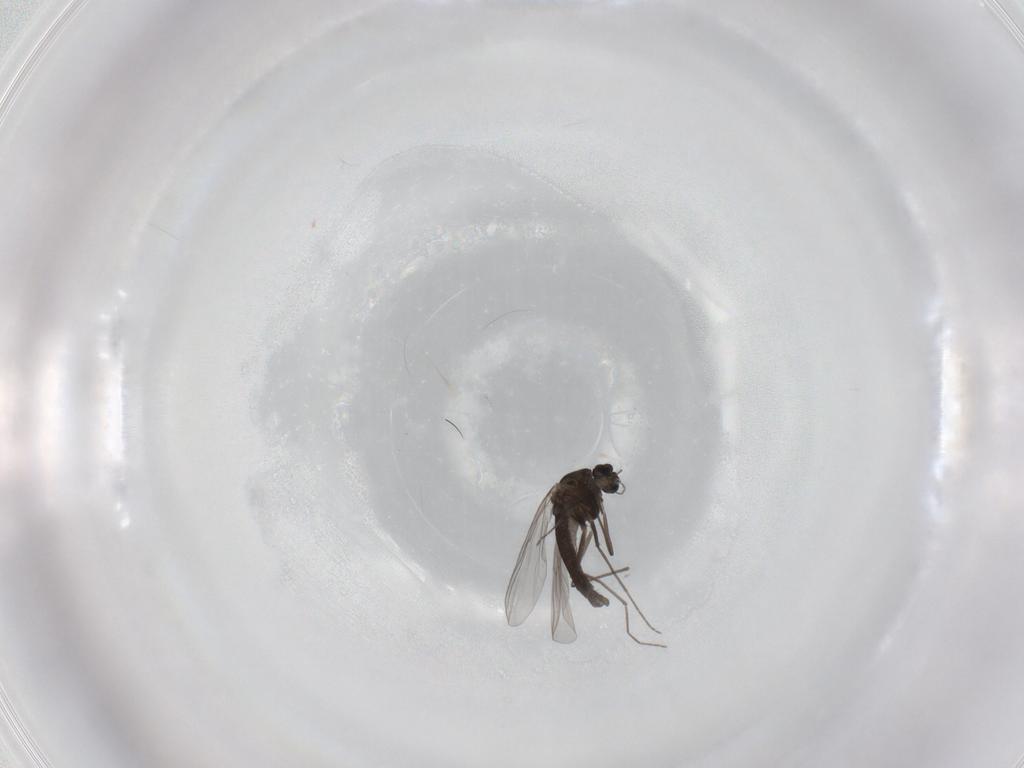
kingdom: Animalia
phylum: Arthropoda
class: Insecta
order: Diptera
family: Chironomidae
